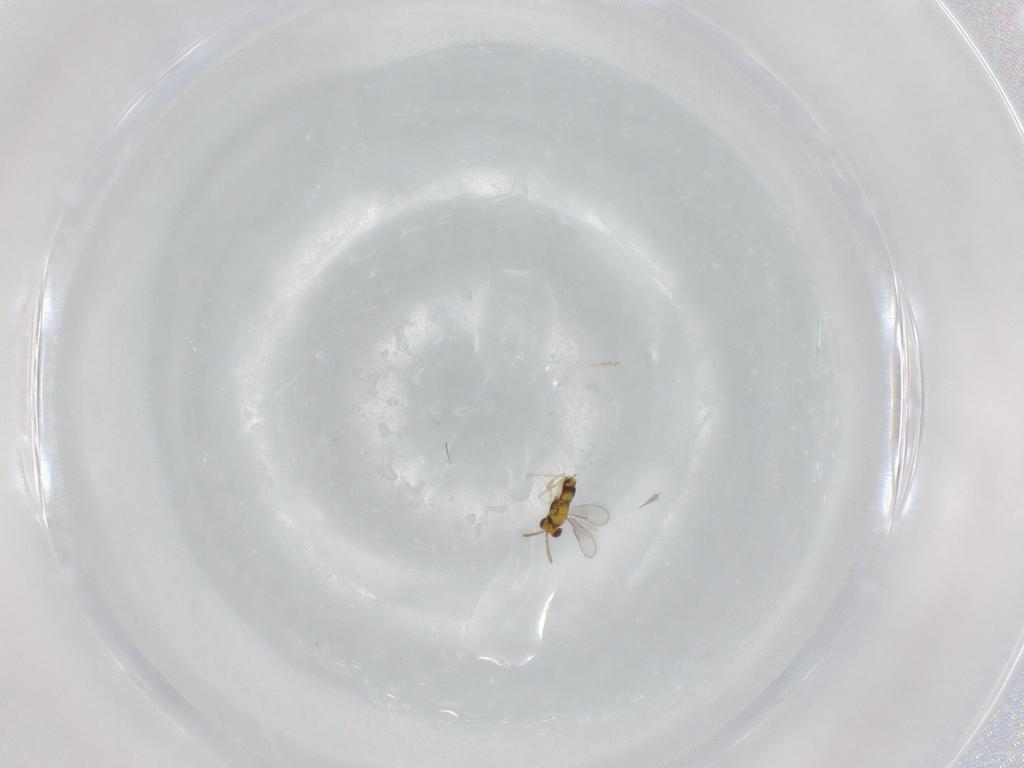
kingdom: Animalia
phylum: Arthropoda
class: Insecta
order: Hymenoptera
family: Aphelinidae
